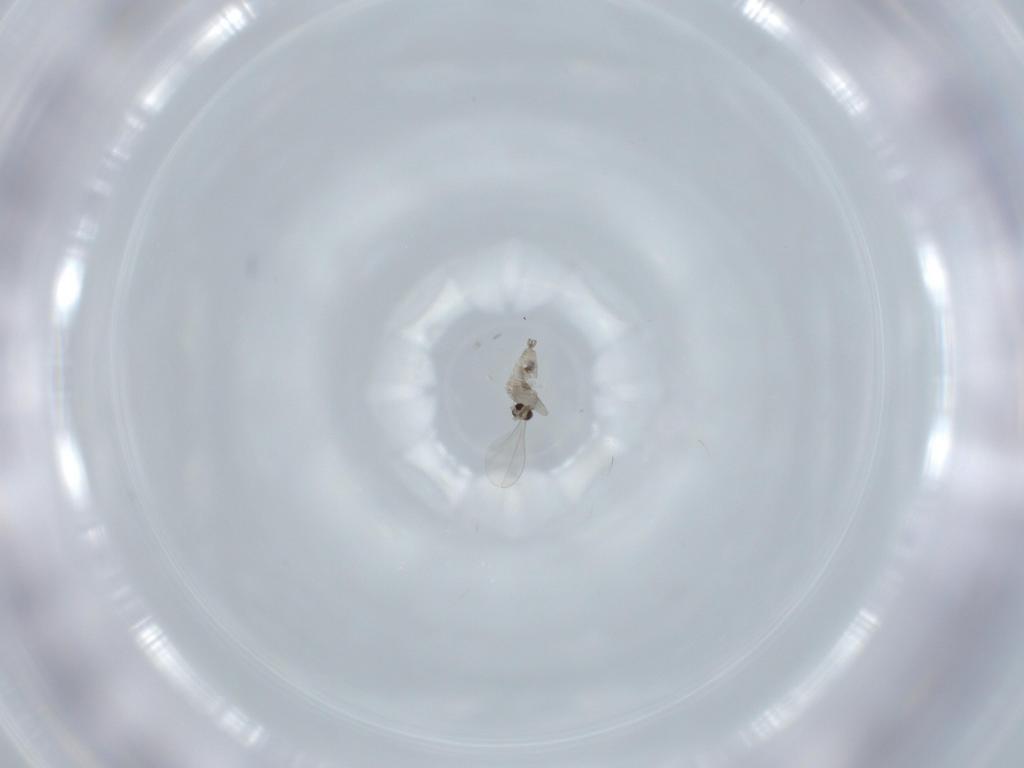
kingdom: Animalia
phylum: Arthropoda
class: Insecta
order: Diptera
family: Cecidomyiidae
